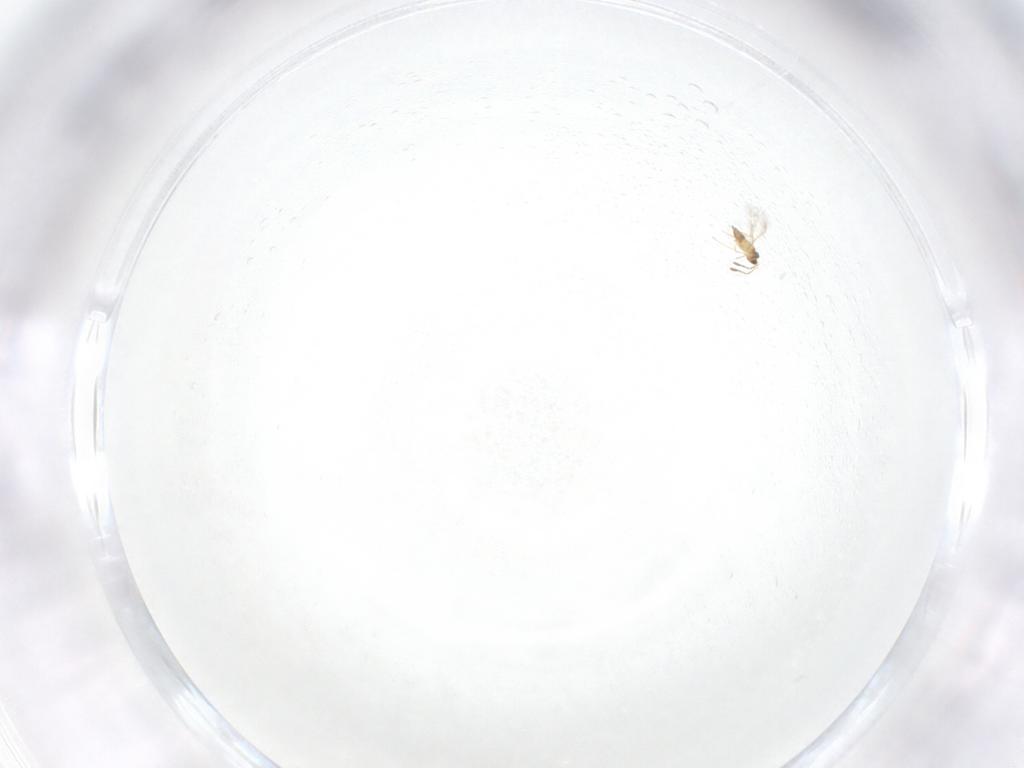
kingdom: Animalia
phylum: Arthropoda
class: Insecta
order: Hymenoptera
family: Mymaridae
